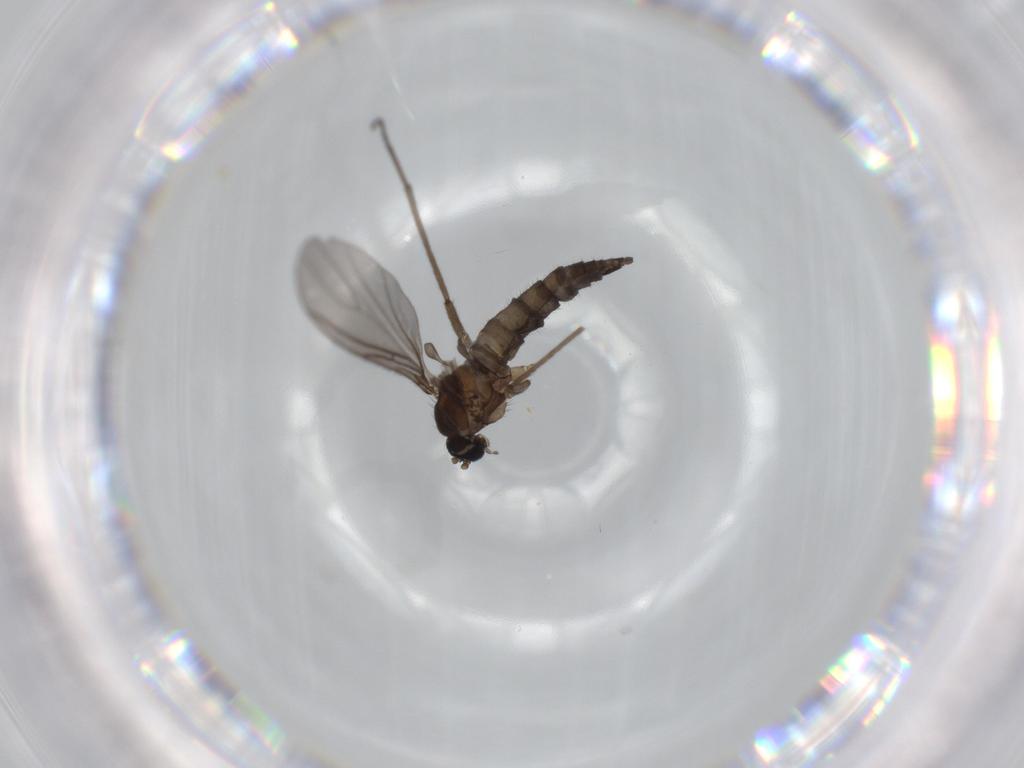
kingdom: Animalia
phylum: Arthropoda
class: Insecta
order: Diptera
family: Sciaridae
